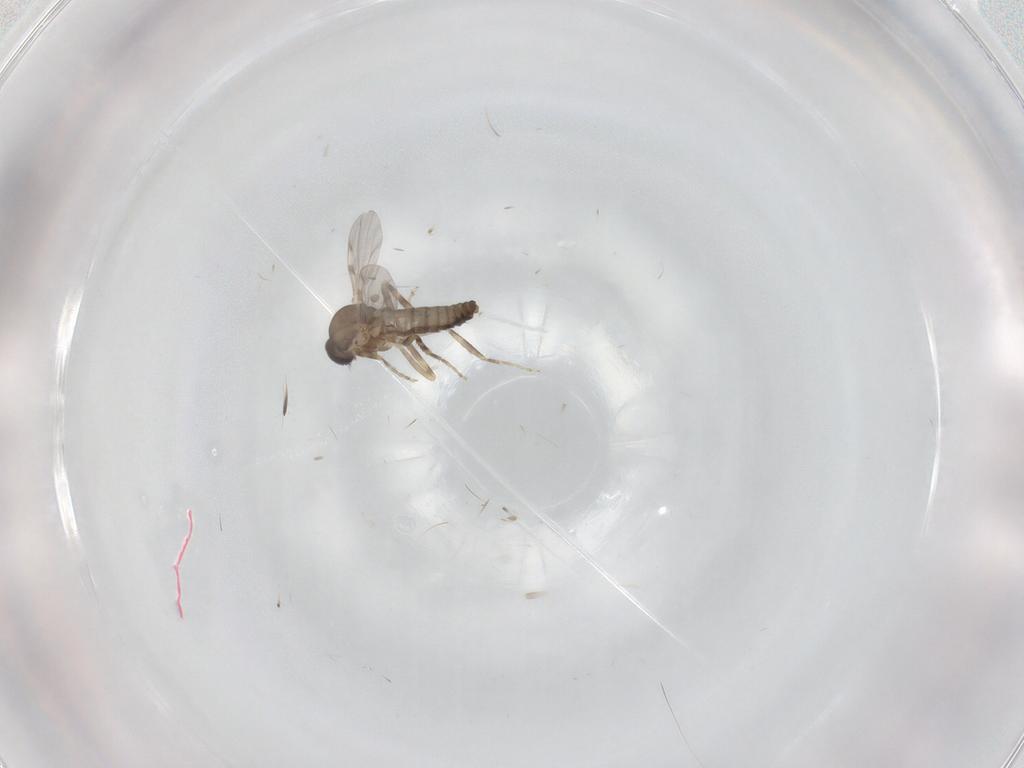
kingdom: Animalia
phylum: Arthropoda
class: Insecta
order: Diptera
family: Ceratopogonidae
